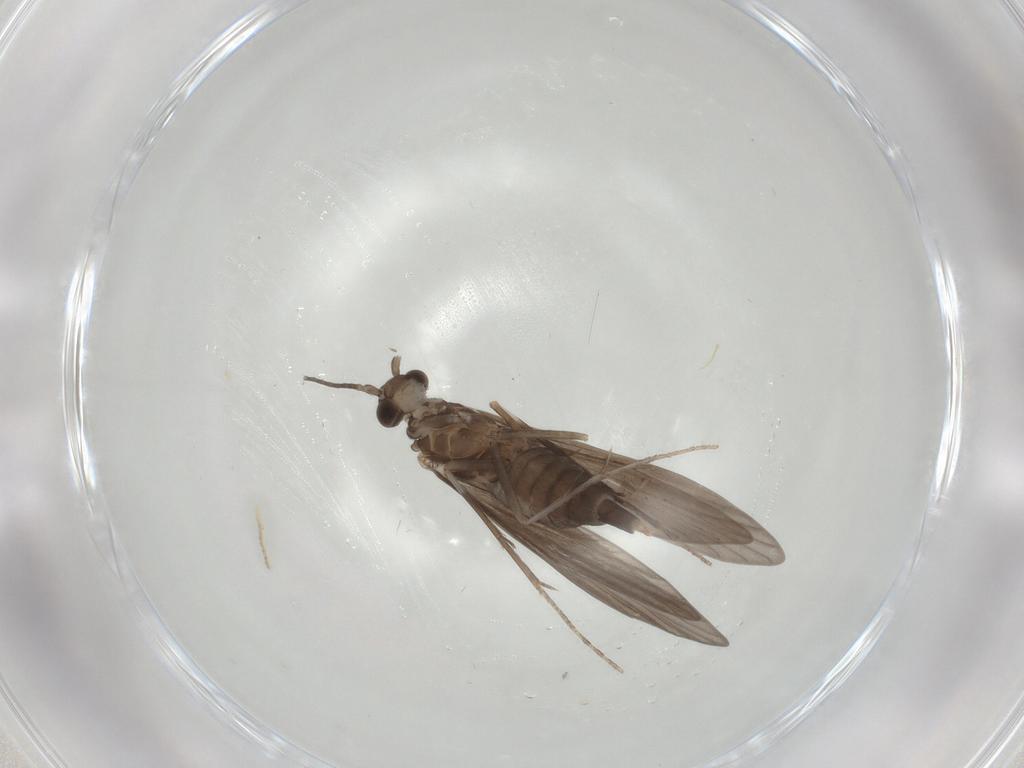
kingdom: Animalia
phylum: Arthropoda
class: Insecta
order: Trichoptera
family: Xiphocentronidae
